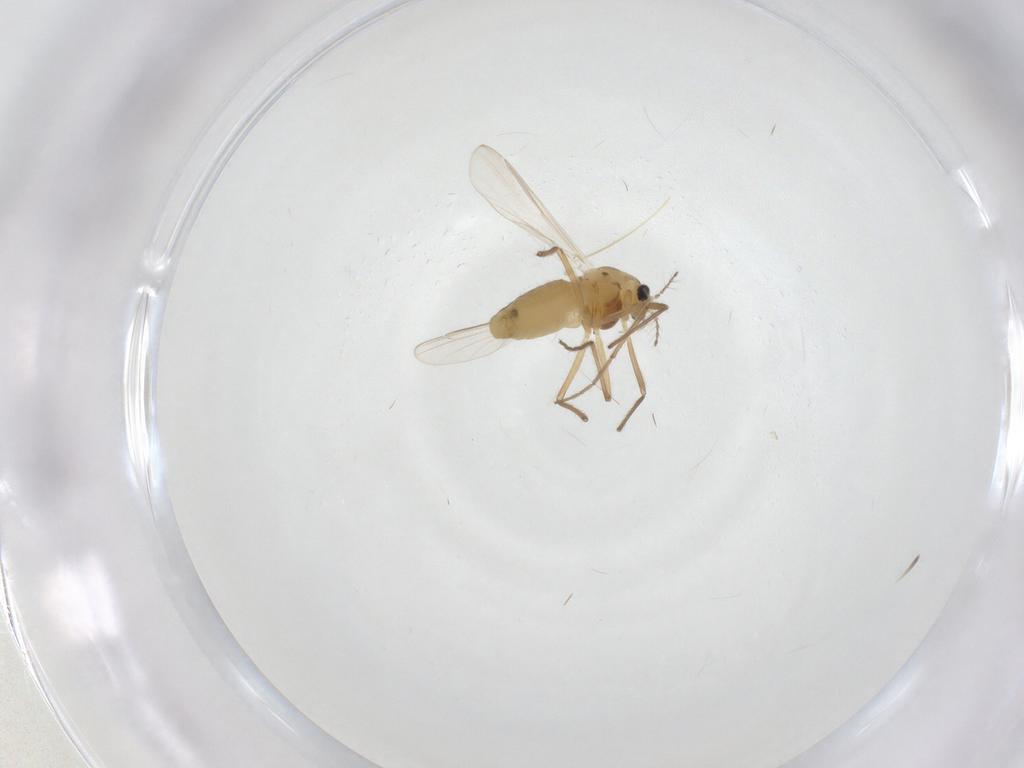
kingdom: Animalia
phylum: Arthropoda
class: Insecta
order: Diptera
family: Chironomidae
